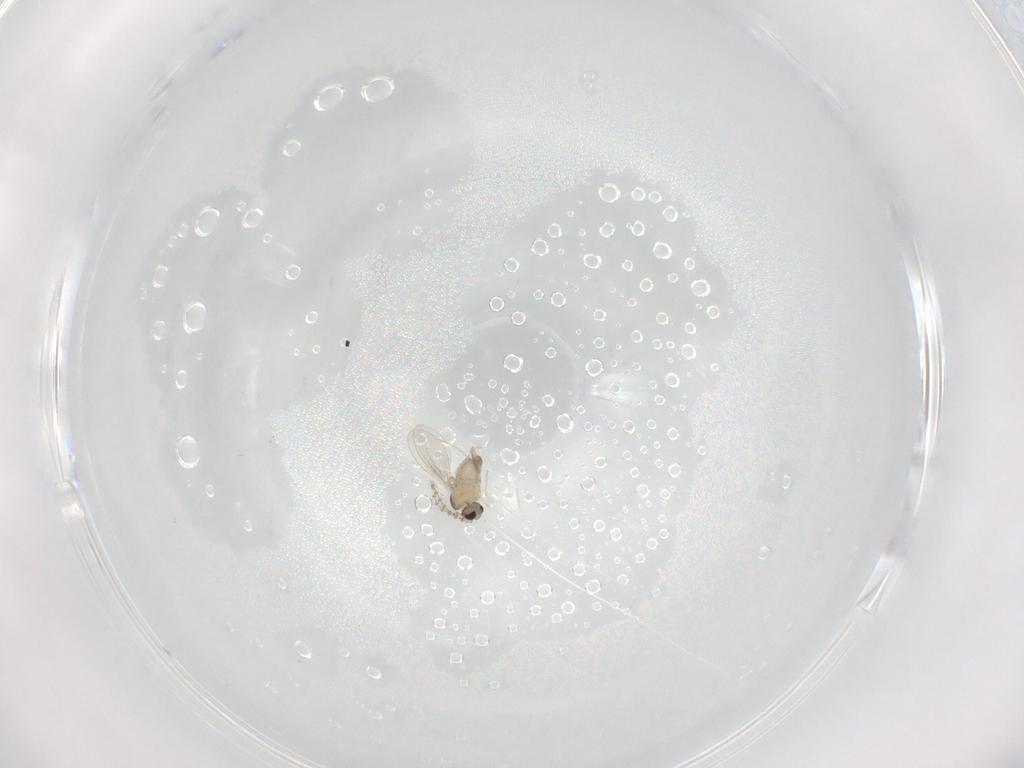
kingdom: Animalia
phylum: Arthropoda
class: Insecta
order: Diptera
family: Cecidomyiidae
